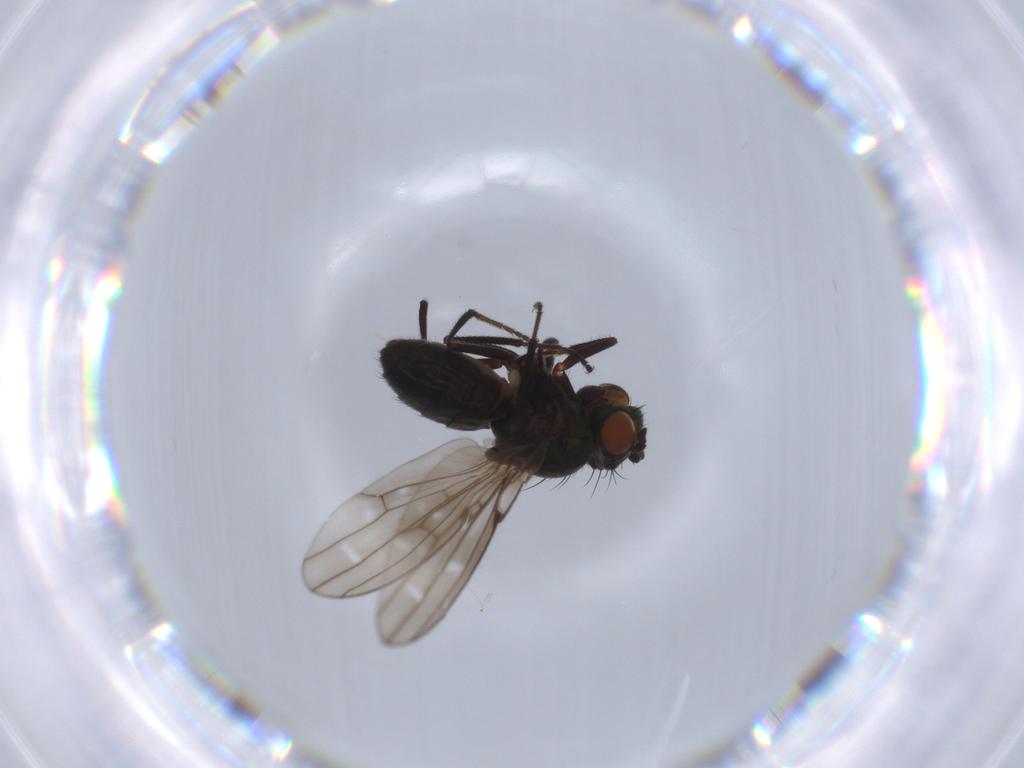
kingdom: Animalia
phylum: Arthropoda
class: Insecta
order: Diptera
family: Ephydridae
